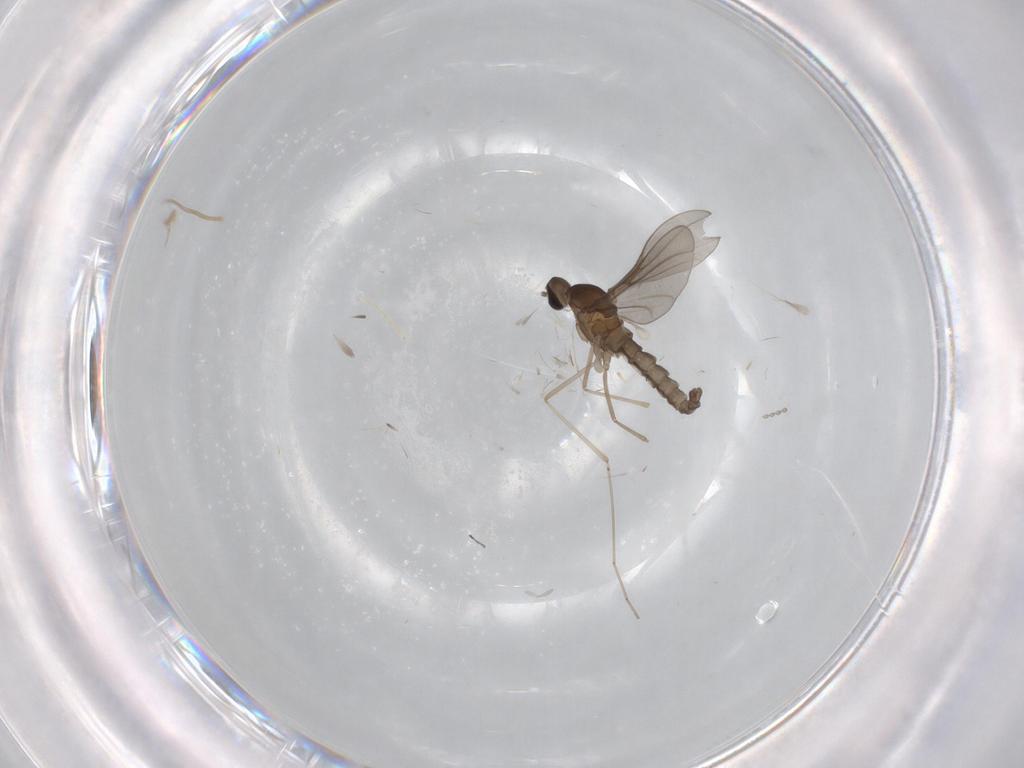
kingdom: Animalia
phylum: Arthropoda
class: Insecta
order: Diptera
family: Cecidomyiidae
